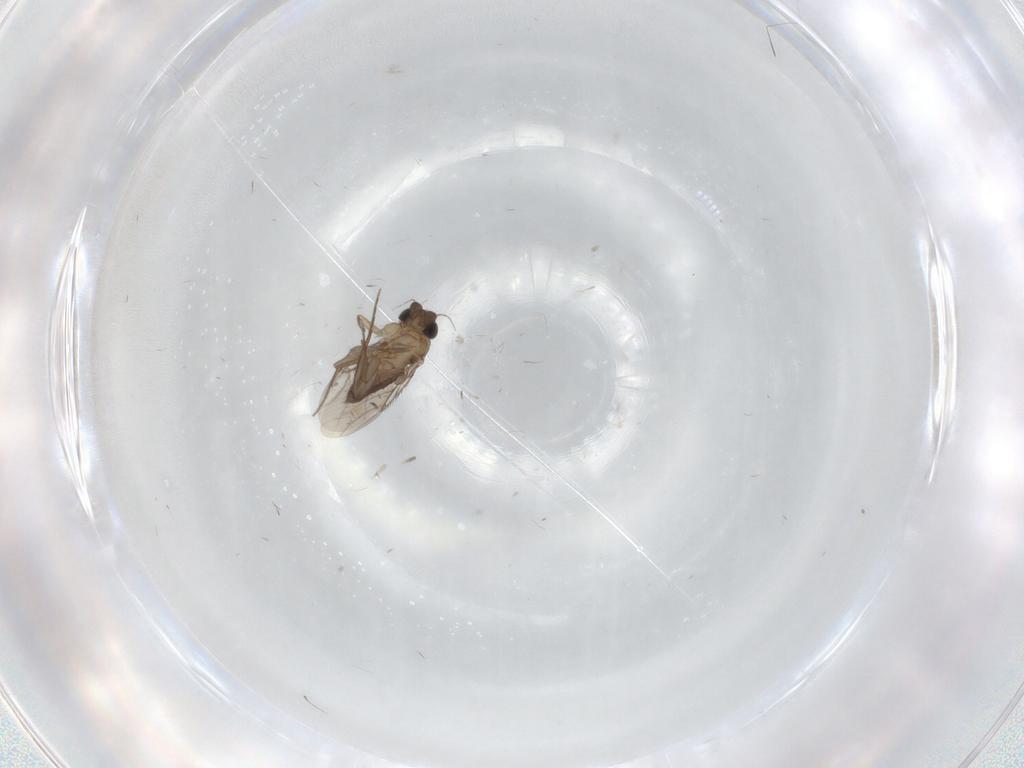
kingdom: Animalia
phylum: Arthropoda
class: Insecta
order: Diptera
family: Phoridae
